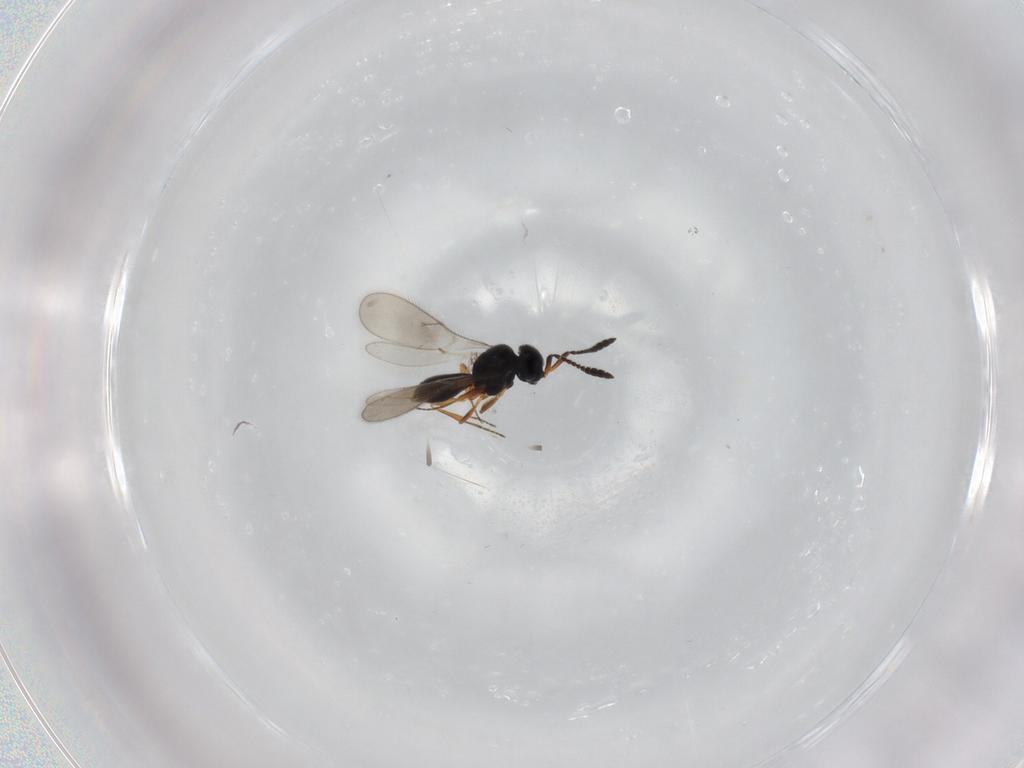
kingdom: Animalia
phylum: Arthropoda
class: Insecta
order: Hymenoptera
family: Scelionidae
